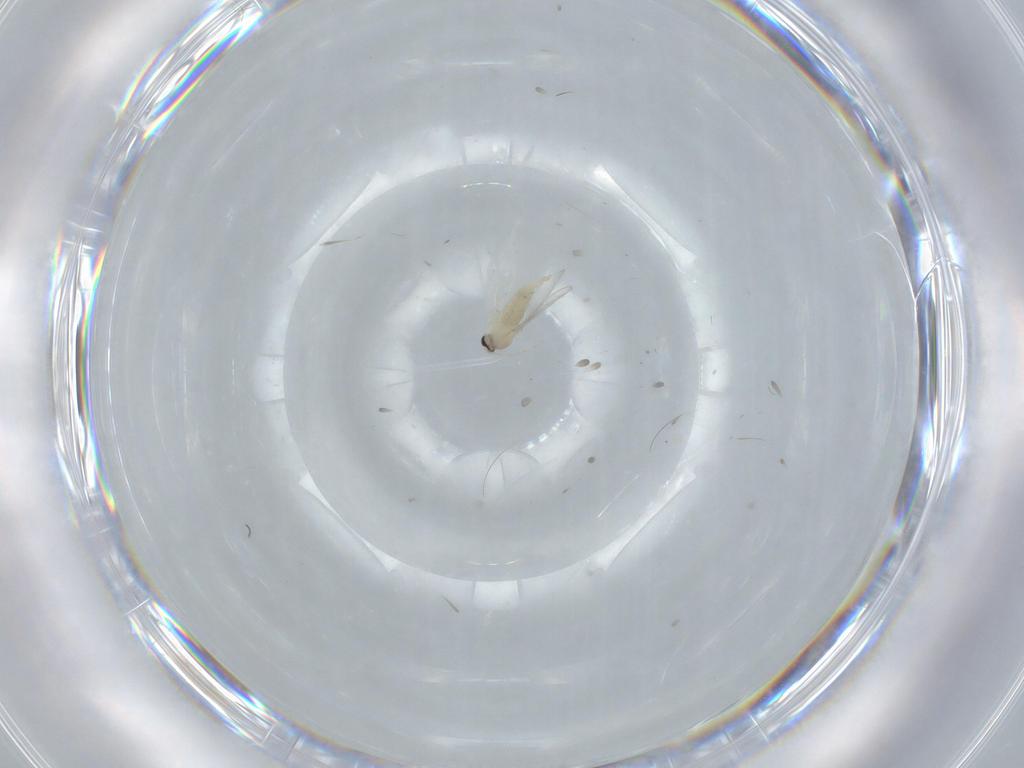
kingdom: Animalia
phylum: Arthropoda
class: Insecta
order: Diptera
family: Cecidomyiidae
